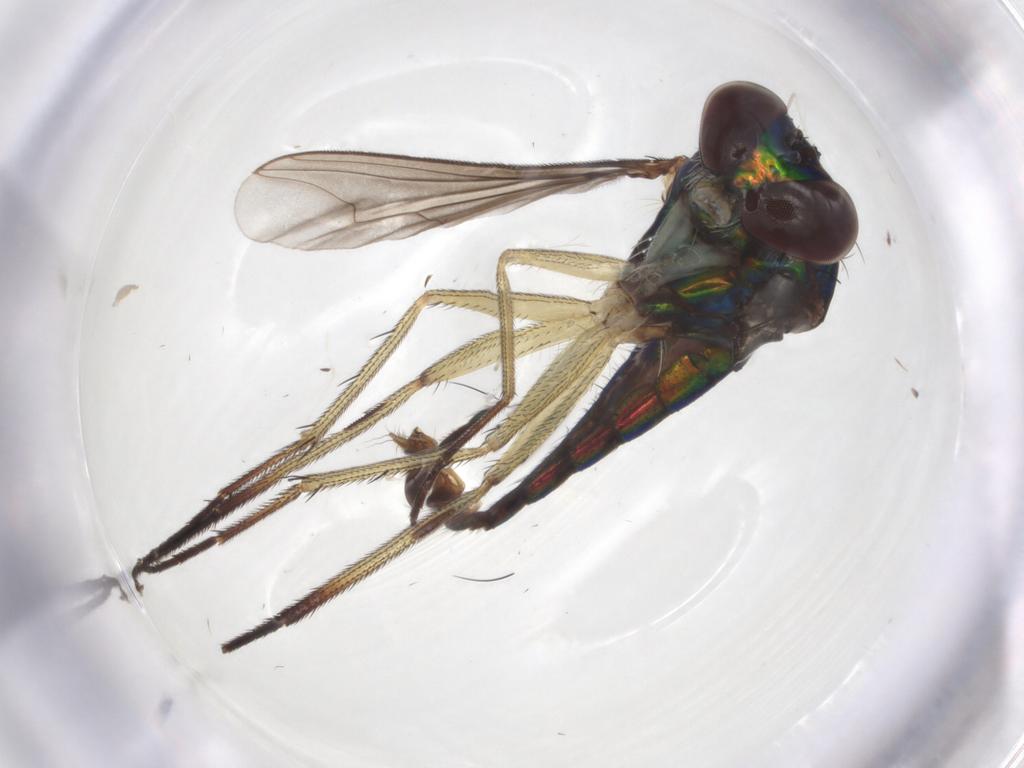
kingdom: Animalia
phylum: Arthropoda
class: Insecta
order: Diptera
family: Dolichopodidae
